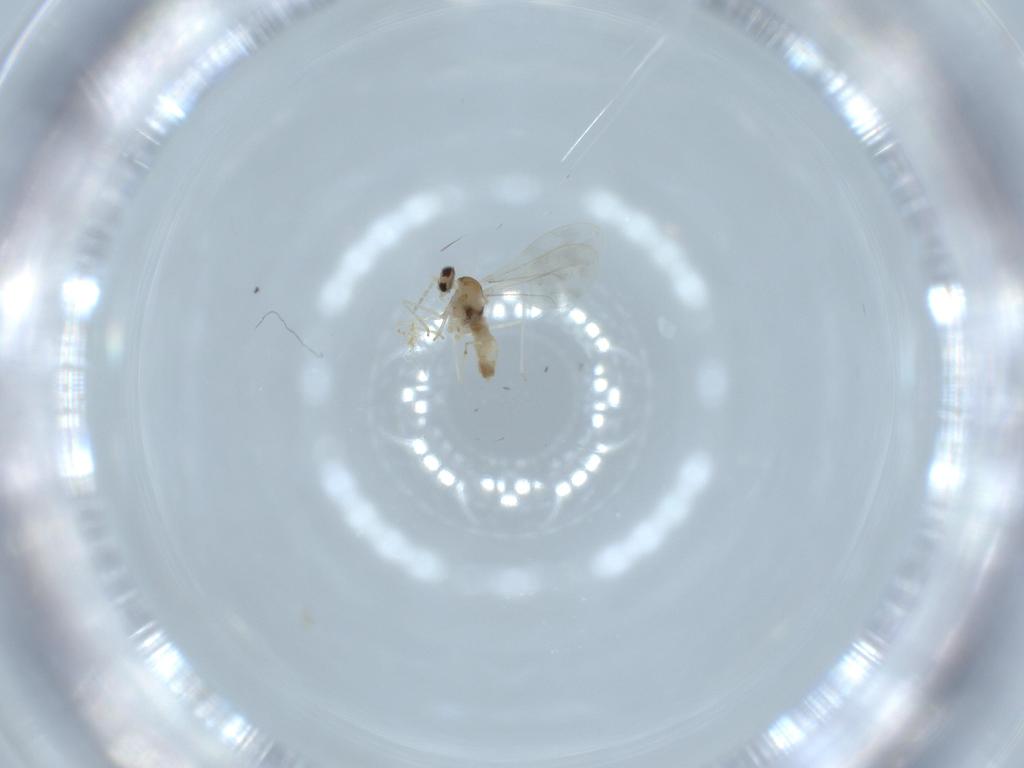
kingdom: Animalia
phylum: Arthropoda
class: Insecta
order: Diptera
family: Cecidomyiidae
